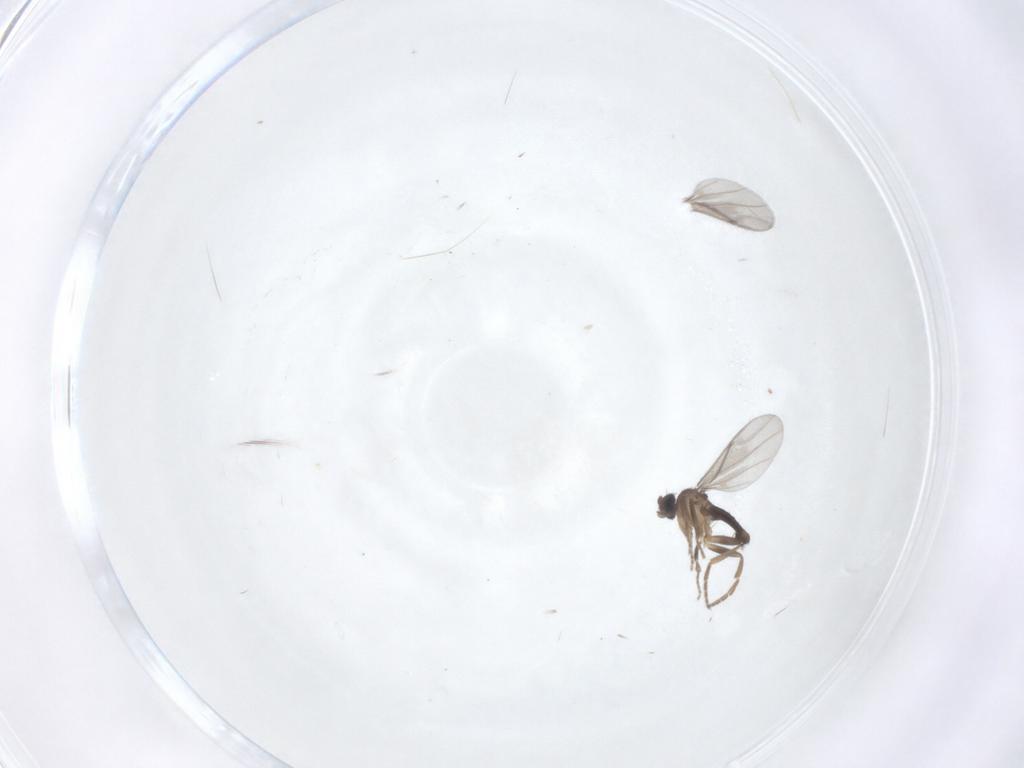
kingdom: Animalia
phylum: Arthropoda
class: Insecta
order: Diptera
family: Phoridae
